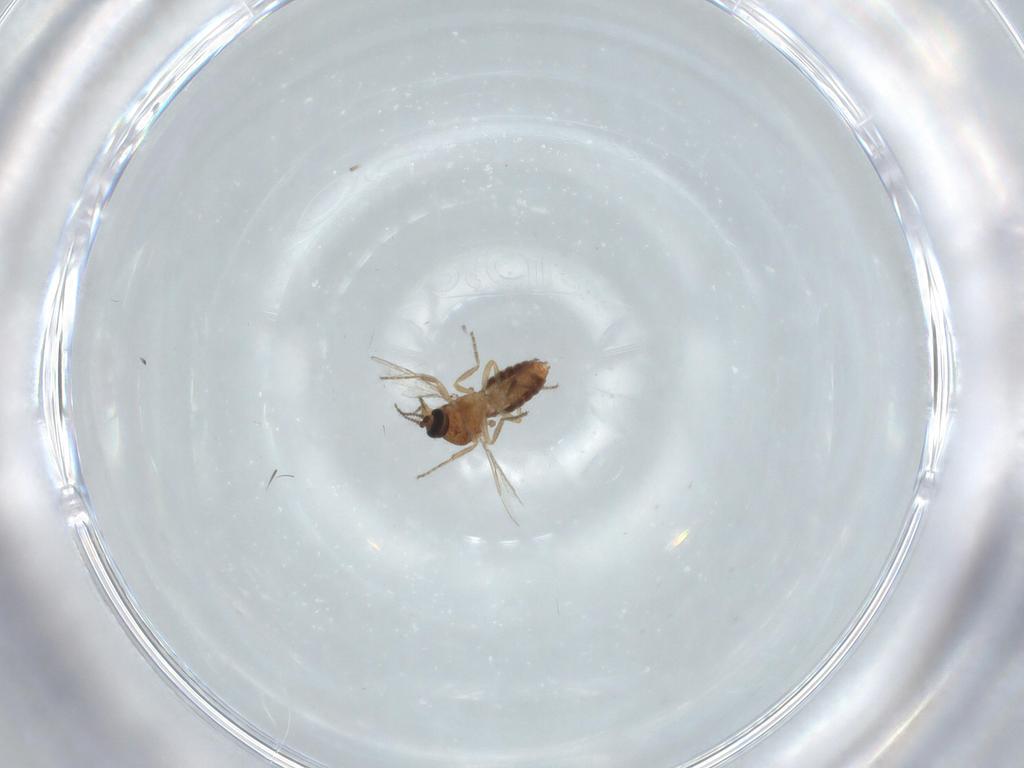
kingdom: Animalia
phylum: Arthropoda
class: Insecta
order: Diptera
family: Ceratopogonidae
